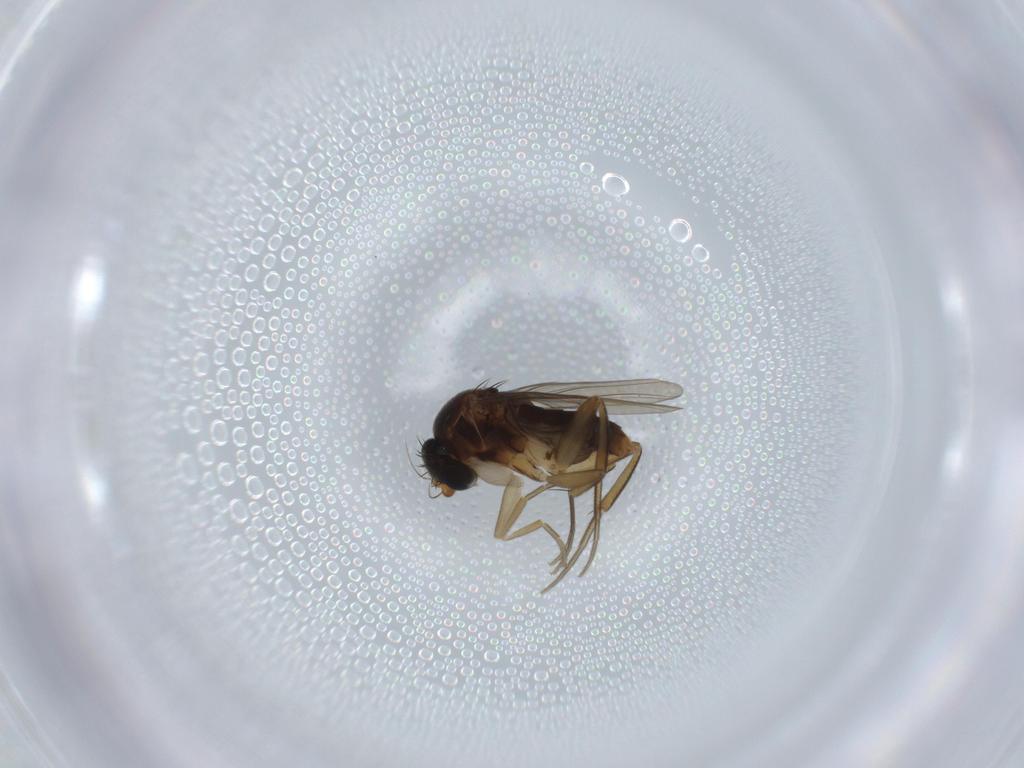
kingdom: Animalia
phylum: Arthropoda
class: Insecta
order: Diptera
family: Phoridae
